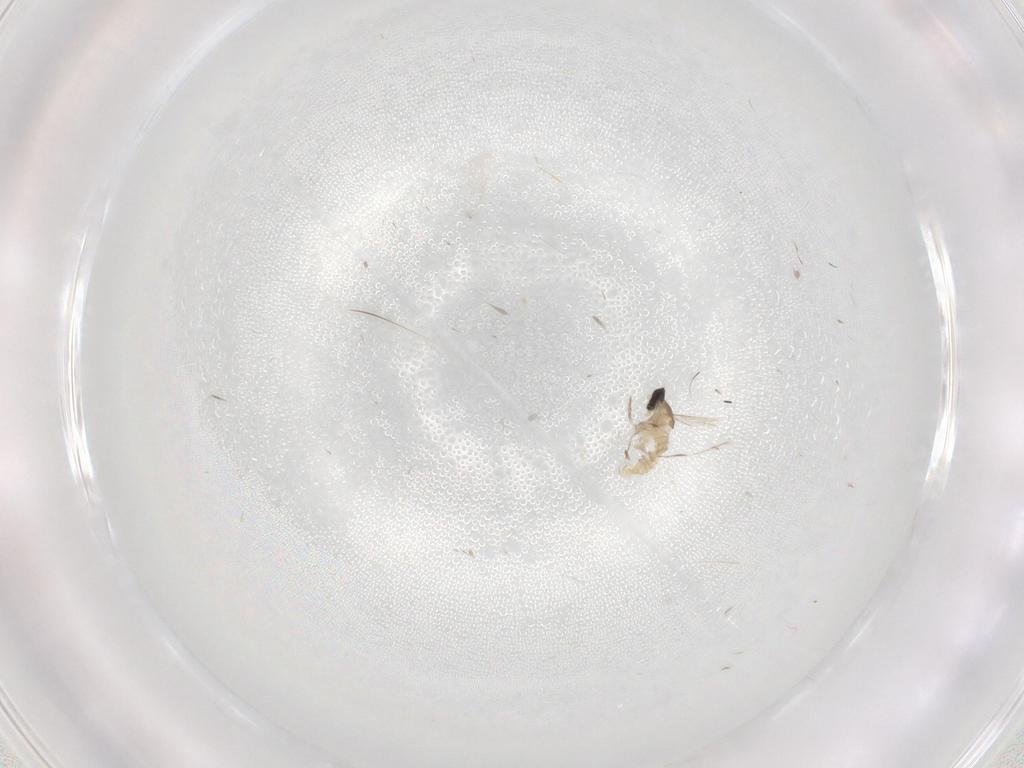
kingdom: Animalia
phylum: Arthropoda
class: Insecta
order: Diptera
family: Cecidomyiidae
